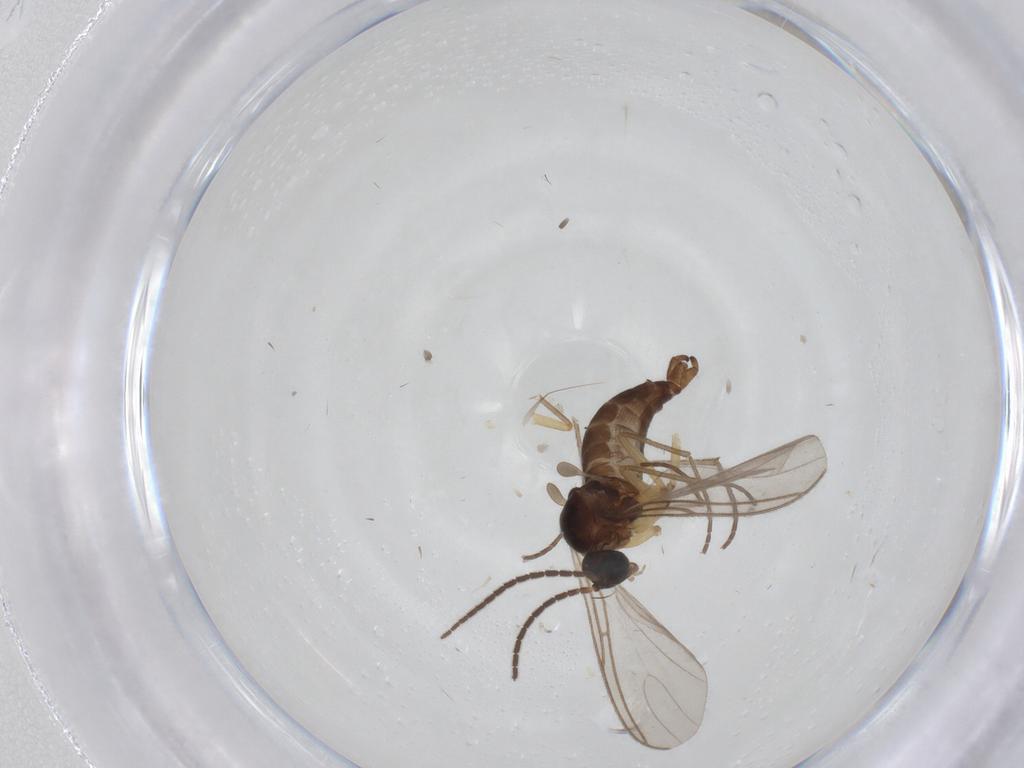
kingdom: Animalia
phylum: Arthropoda
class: Insecta
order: Diptera
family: Sciaridae
